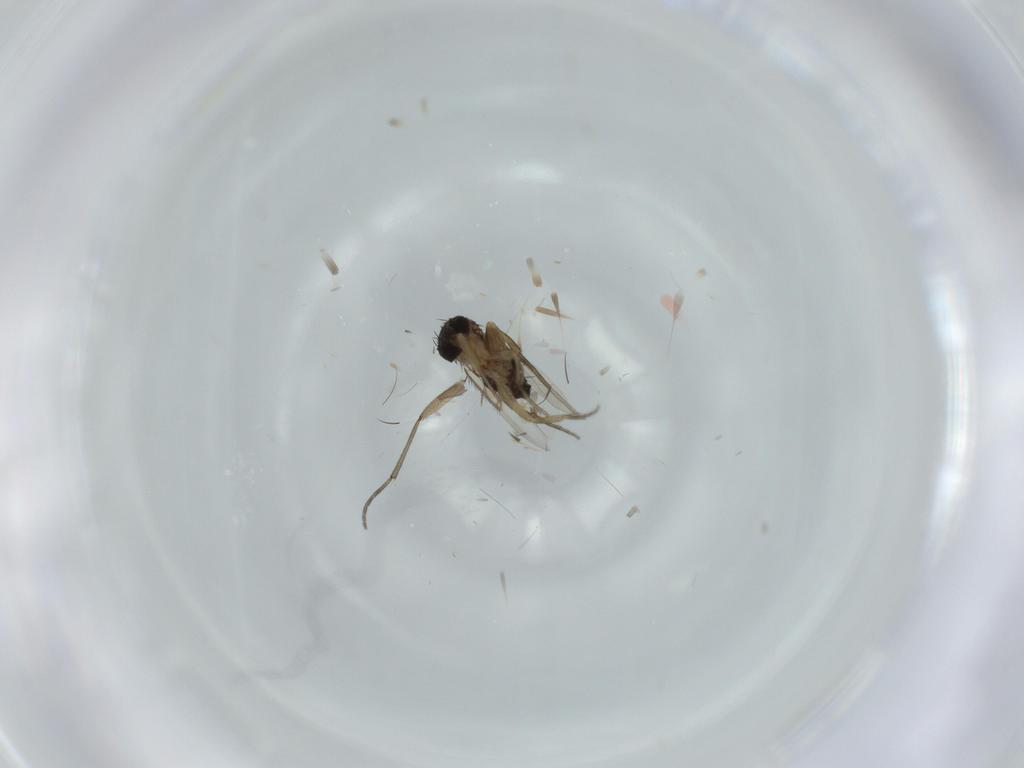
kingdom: Animalia
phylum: Arthropoda
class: Insecta
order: Diptera
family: Phoridae
